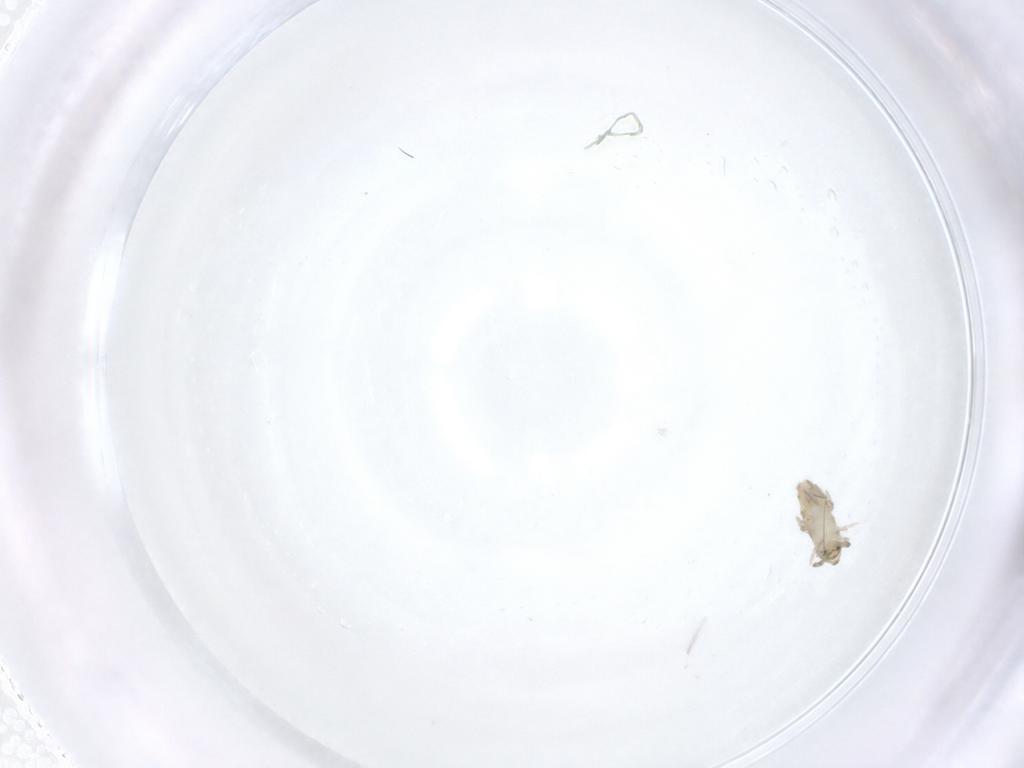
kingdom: Animalia
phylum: Arthropoda
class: Collembola
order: Entomobryomorpha
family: Entomobryidae
